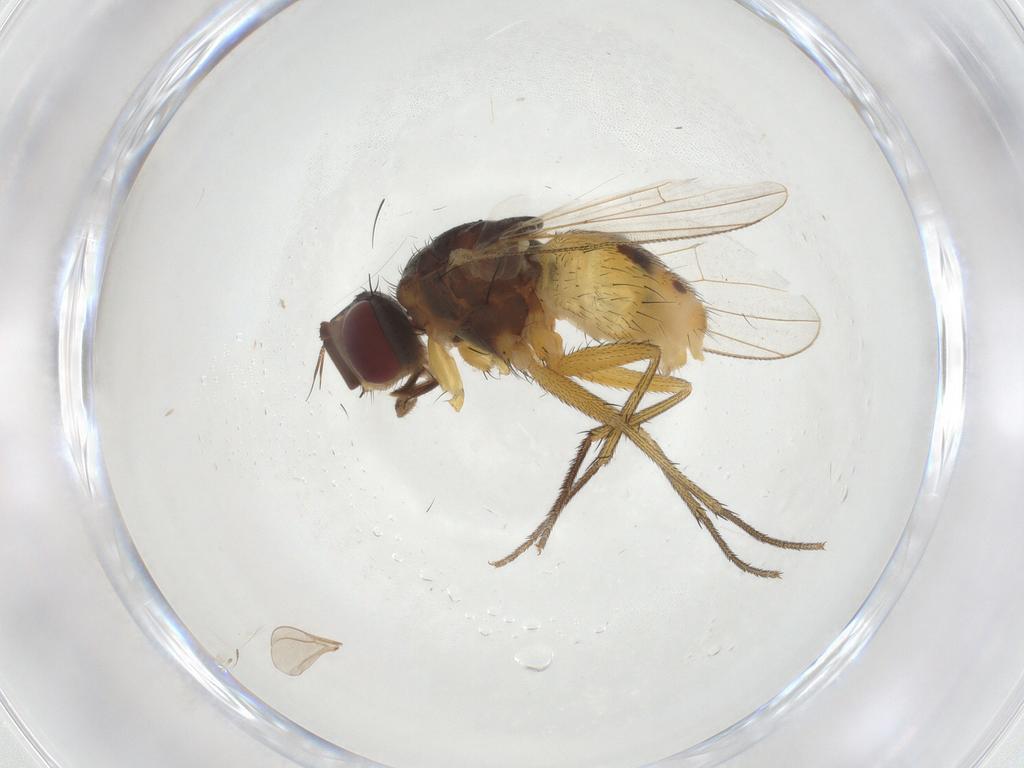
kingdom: Animalia
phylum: Arthropoda
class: Insecta
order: Diptera
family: Muscidae
